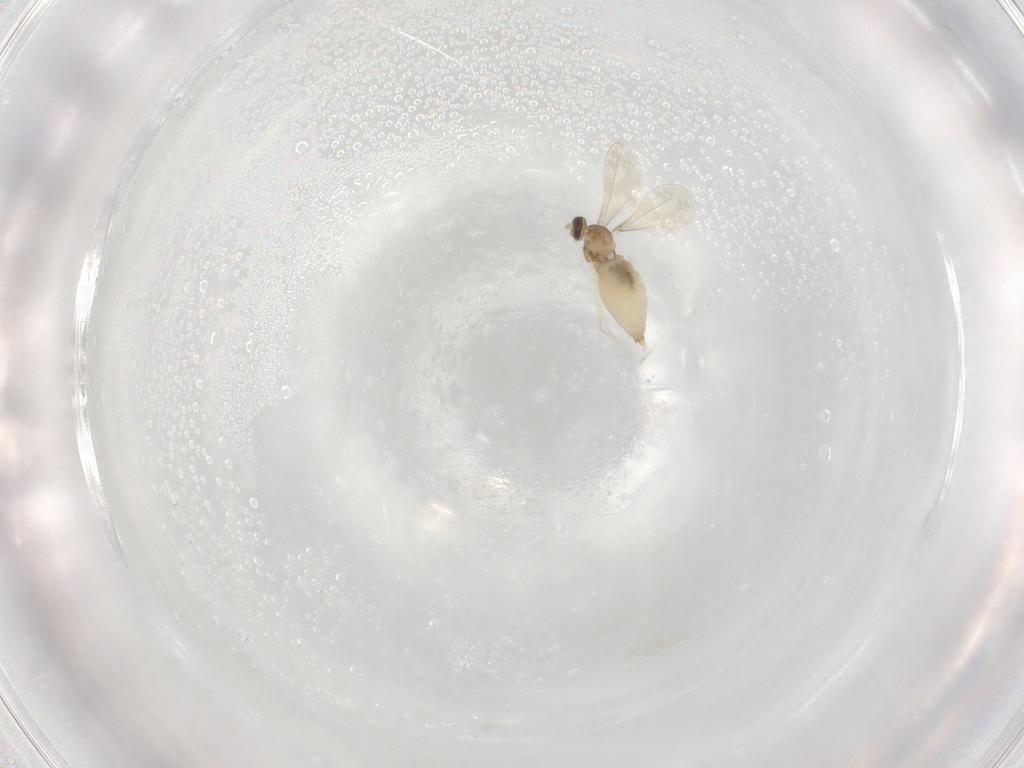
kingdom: Animalia
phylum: Arthropoda
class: Insecta
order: Diptera
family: Cecidomyiidae
